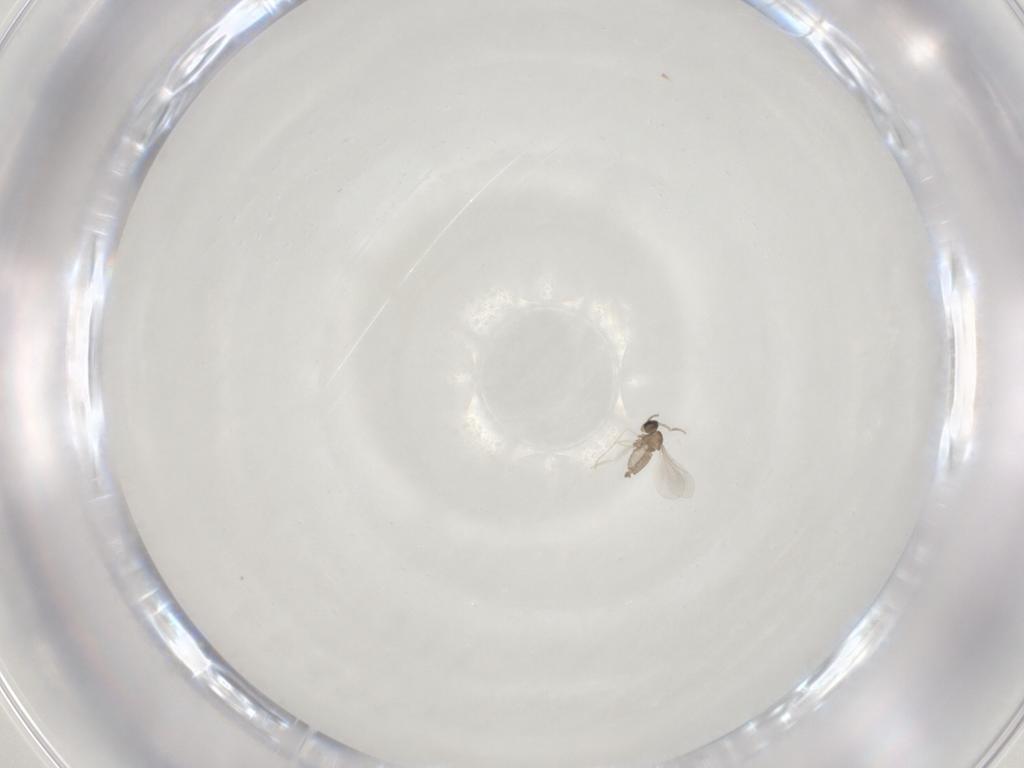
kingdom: Animalia
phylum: Arthropoda
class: Insecta
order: Diptera
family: Cecidomyiidae
